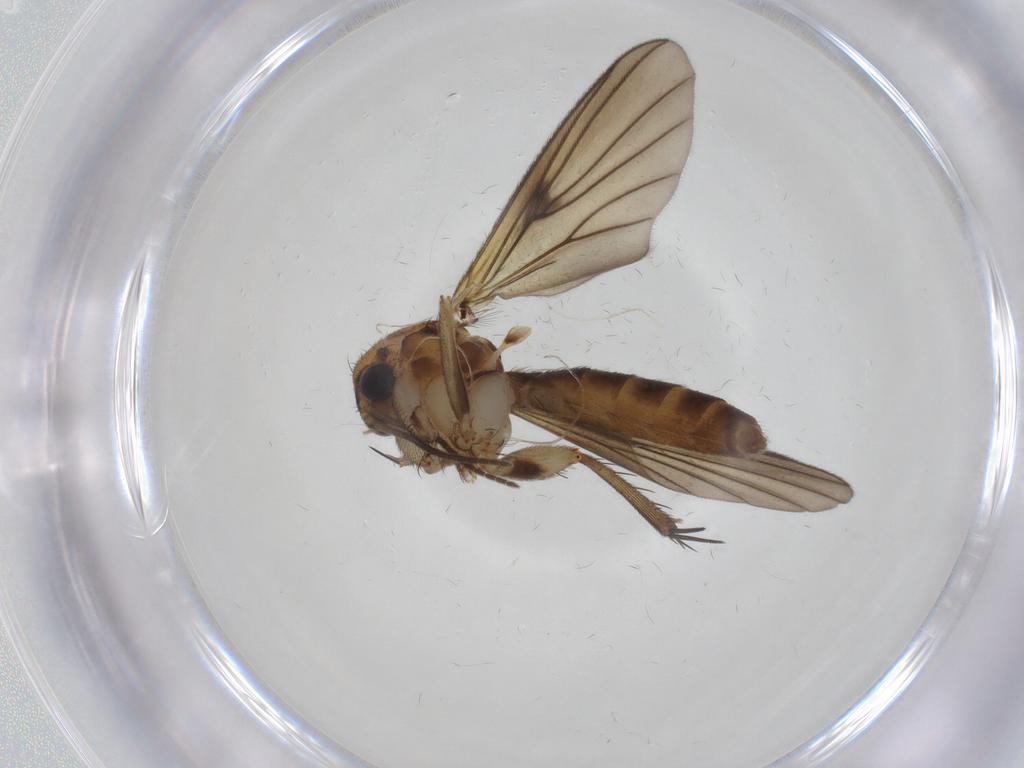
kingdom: Animalia
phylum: Arthropoda
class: Insecta
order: Diptera
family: Mycetophilidae
